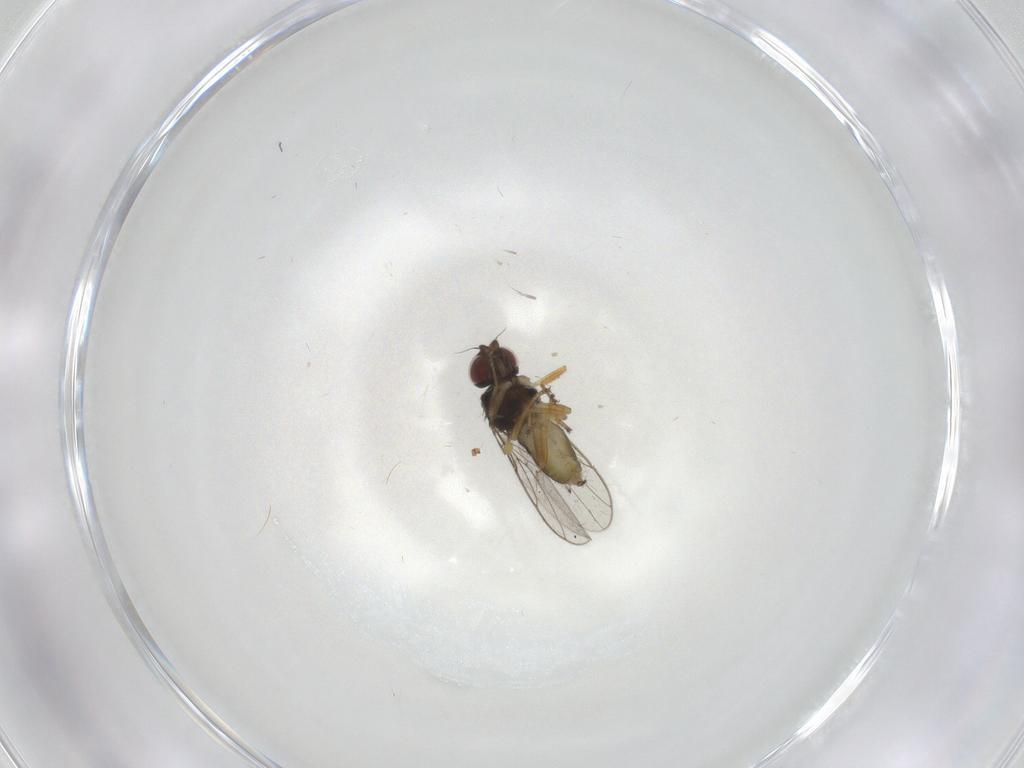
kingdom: Animalia
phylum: Arthropoda
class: Insecta
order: Diptera
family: Chloropidae
